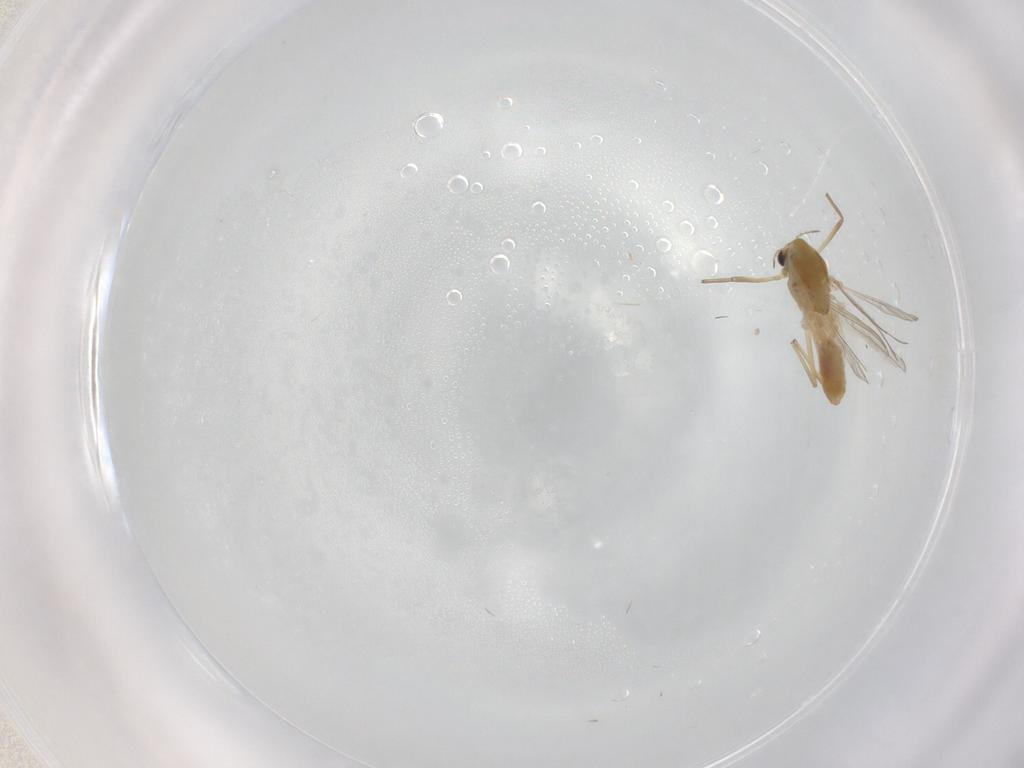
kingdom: Animalia
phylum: Arthropoda
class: Insecta
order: Diptera
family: Chironomidae
